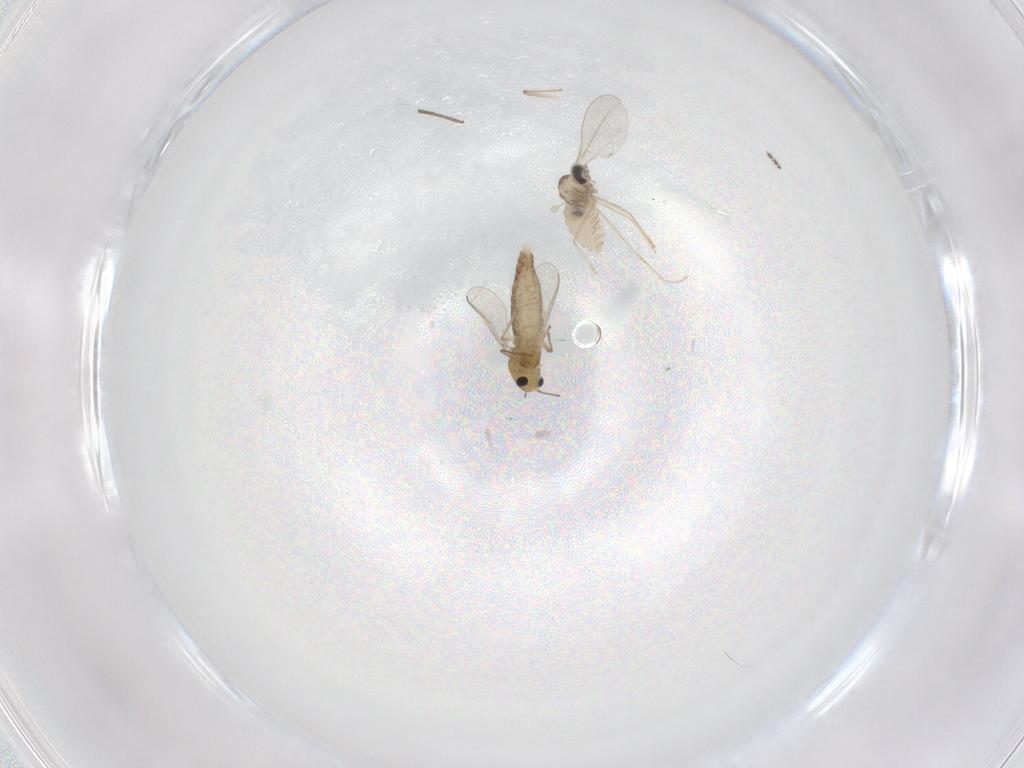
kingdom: Animalia
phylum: Arthropoda
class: Insecta
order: Diptera
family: Chironomidae
